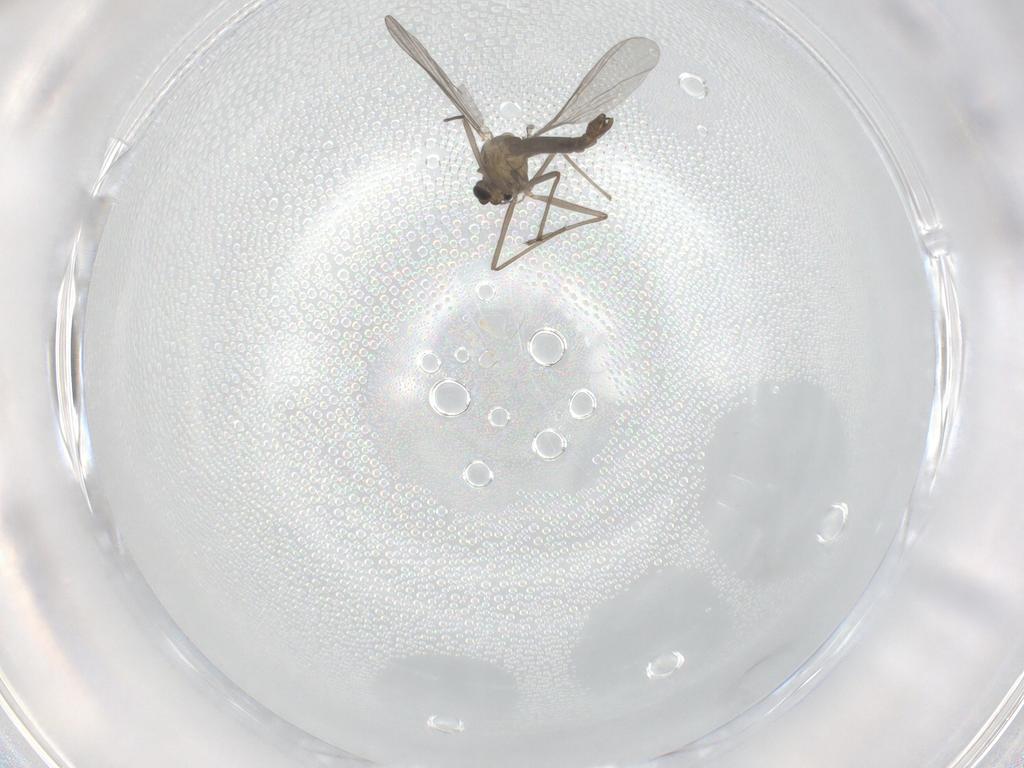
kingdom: Animalia
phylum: Arthropoda
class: Insecta
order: Diptera
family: Chironomidae
